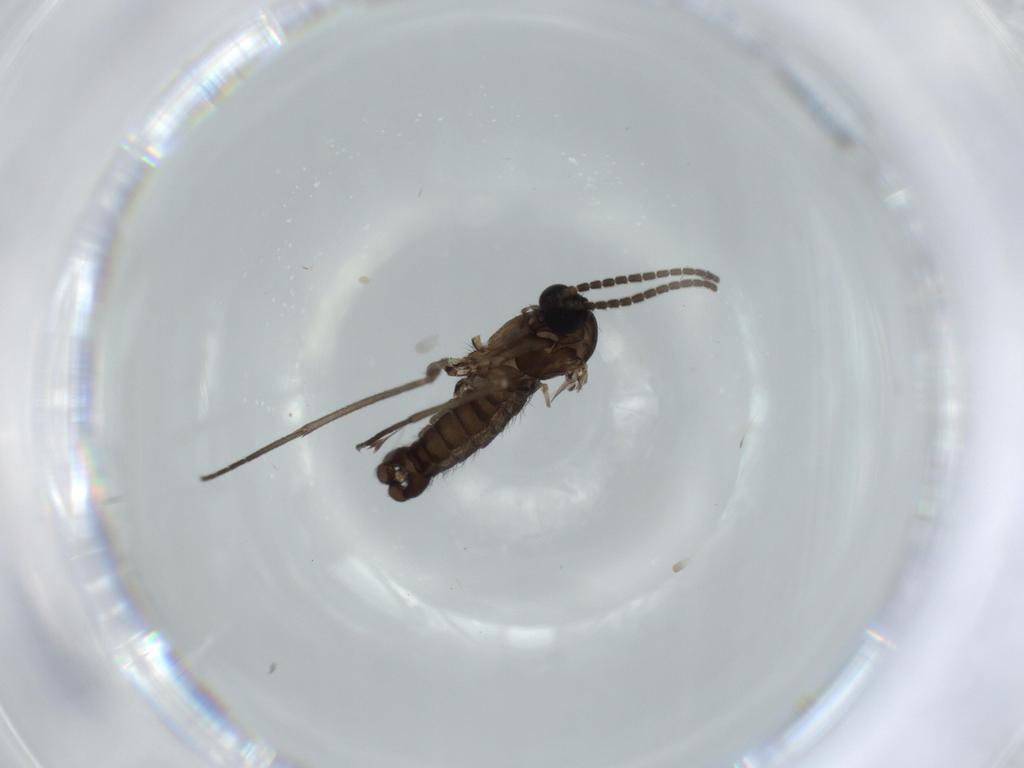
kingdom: Animalia
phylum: Arthropoda
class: Insecta
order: Diptera
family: Sciaridae
